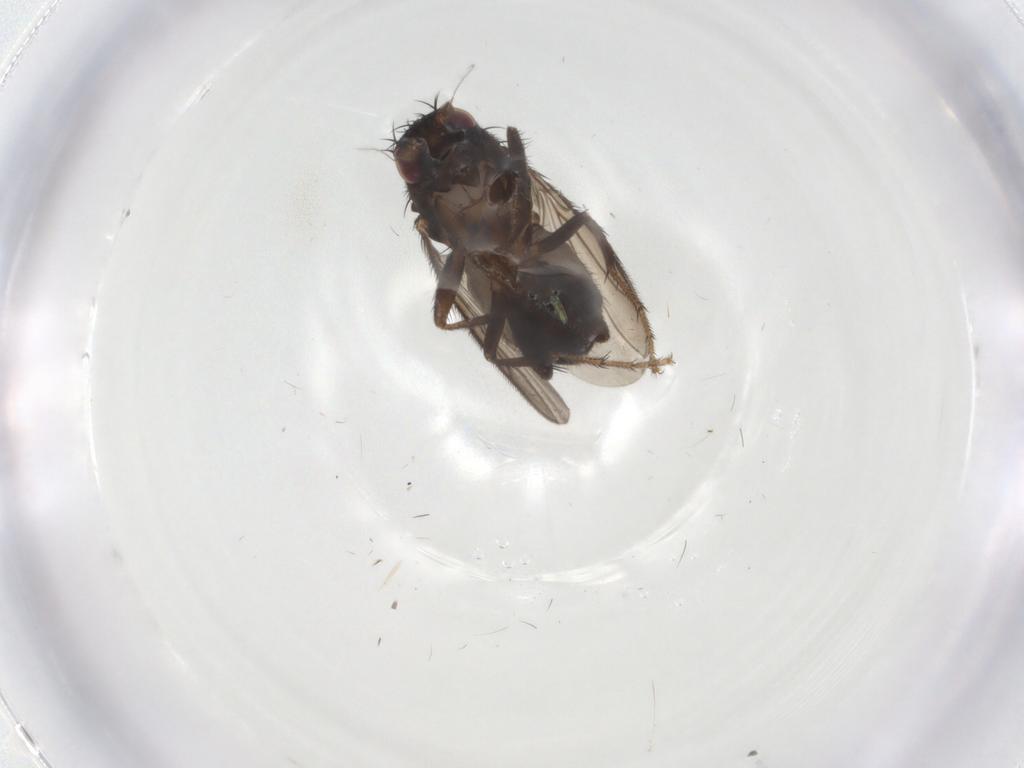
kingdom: Animalia
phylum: Arthropoda
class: Insecta
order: Diptera
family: Sphaeroceridae
